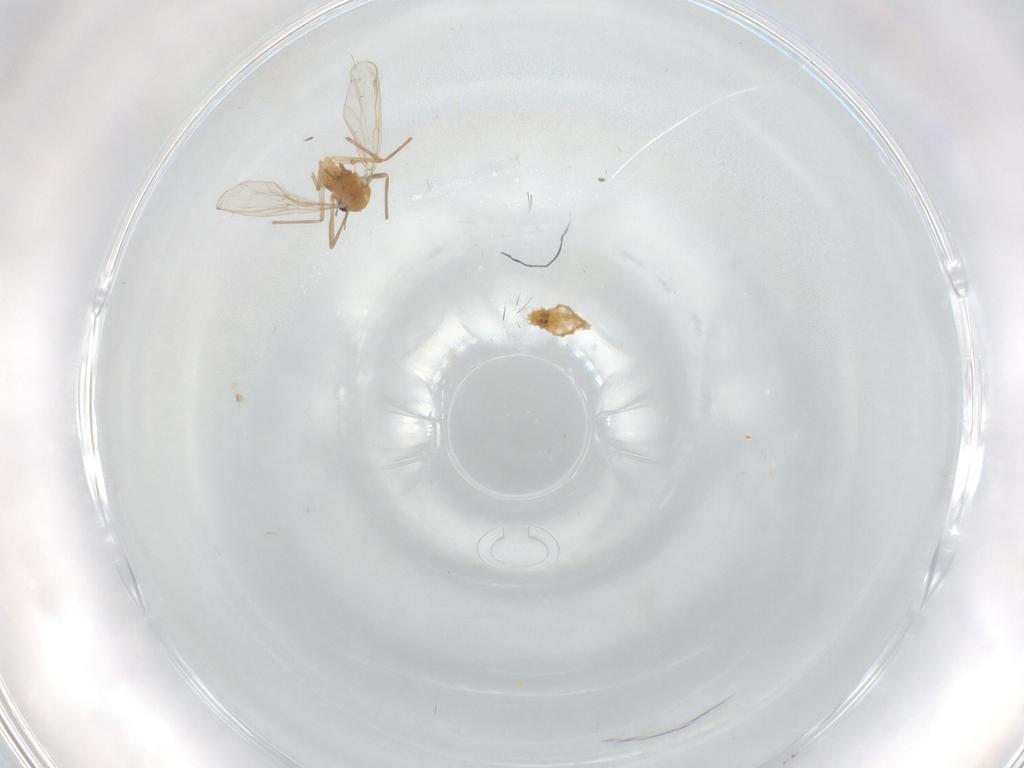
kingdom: Animalia
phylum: Arthropoda
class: Insecta
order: Diptera
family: Chironomidae
